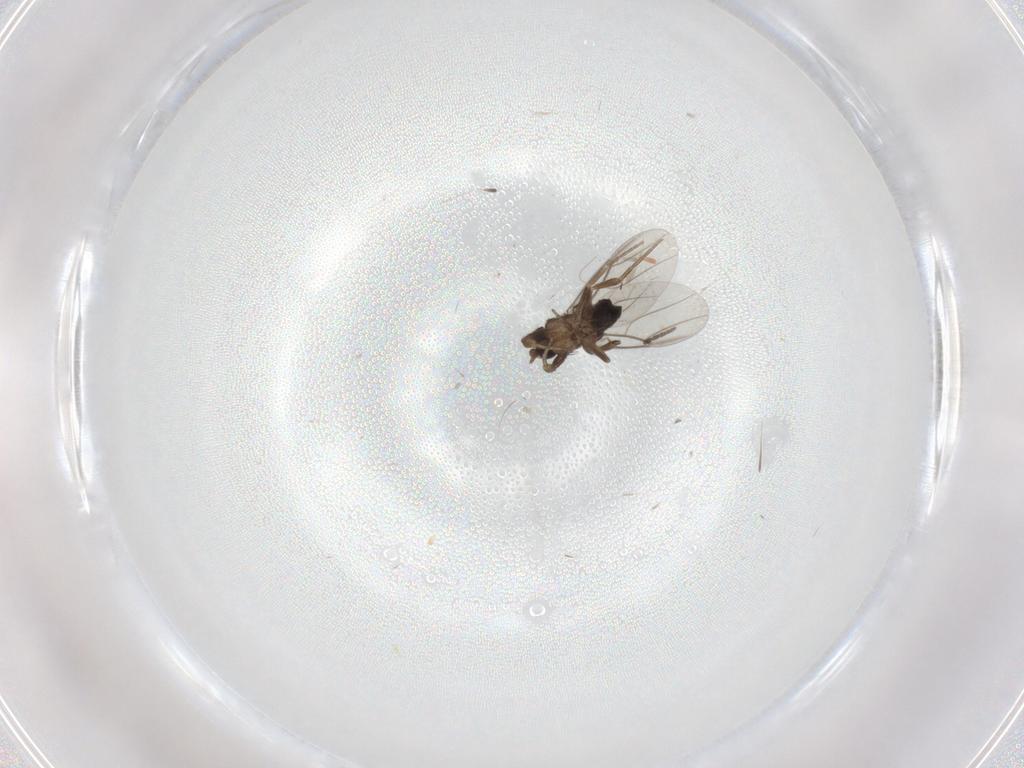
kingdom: Animalia
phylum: Arthropoda
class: Insecta
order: Diptera
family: Phoridae
